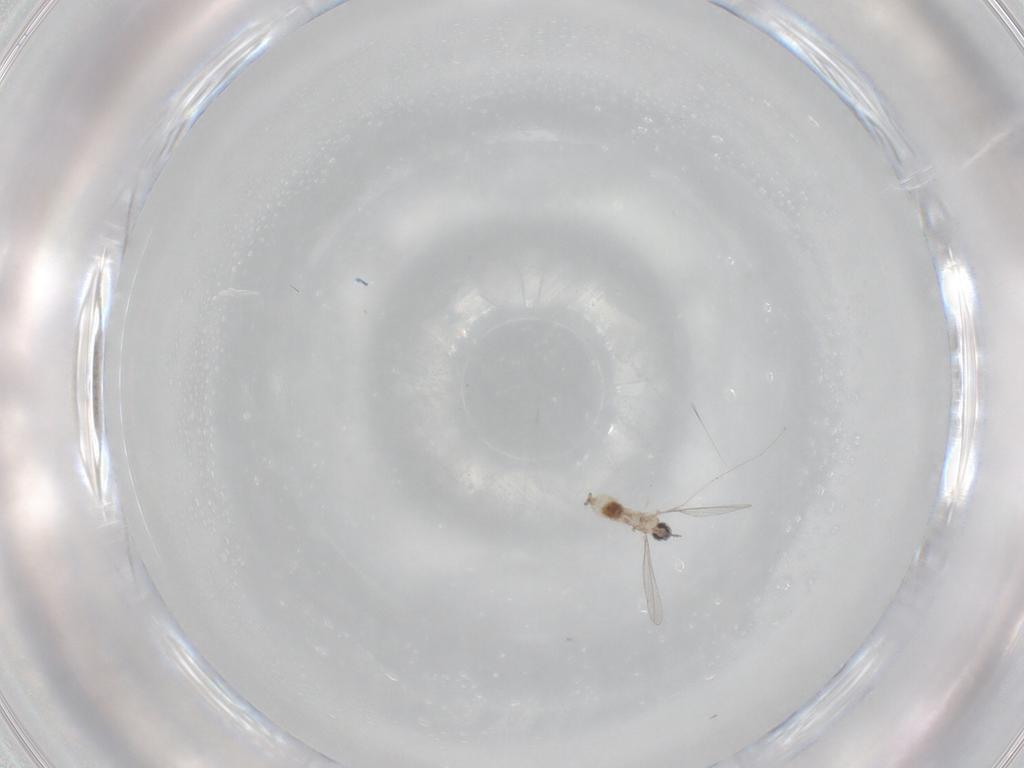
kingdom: Animalia
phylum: Arthropoda
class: Insecta
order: Diptera
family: Cecidomyiidae
